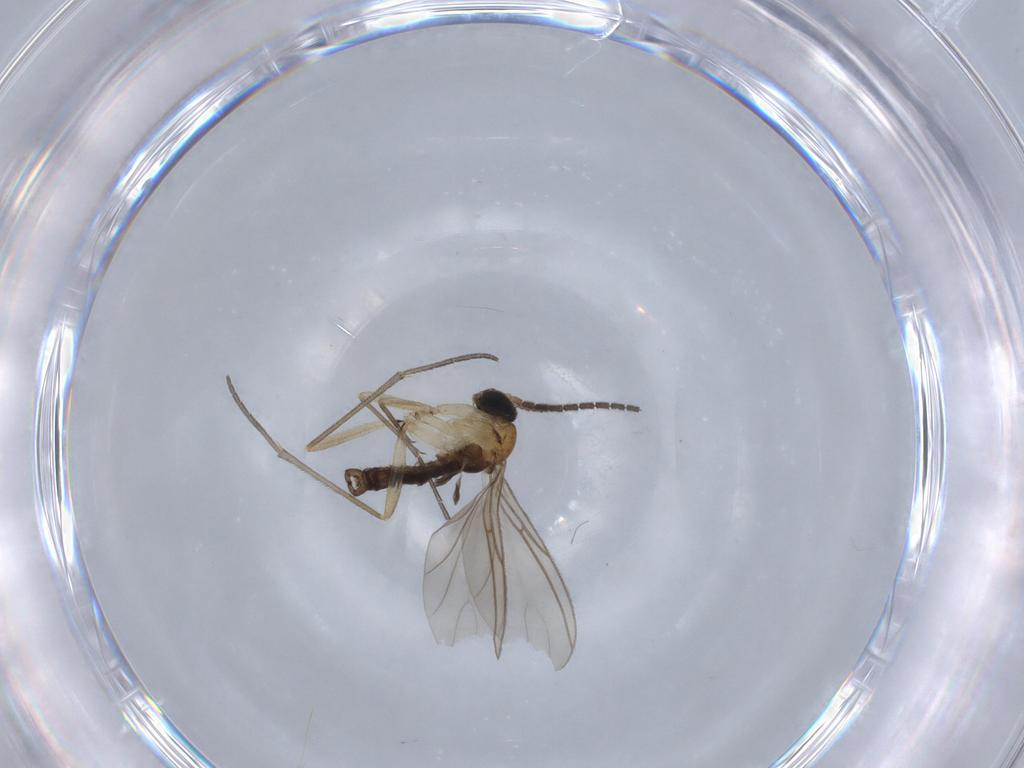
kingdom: Animalia
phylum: Arthropoda
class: Insecta
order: Diptera
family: Sciaridae
